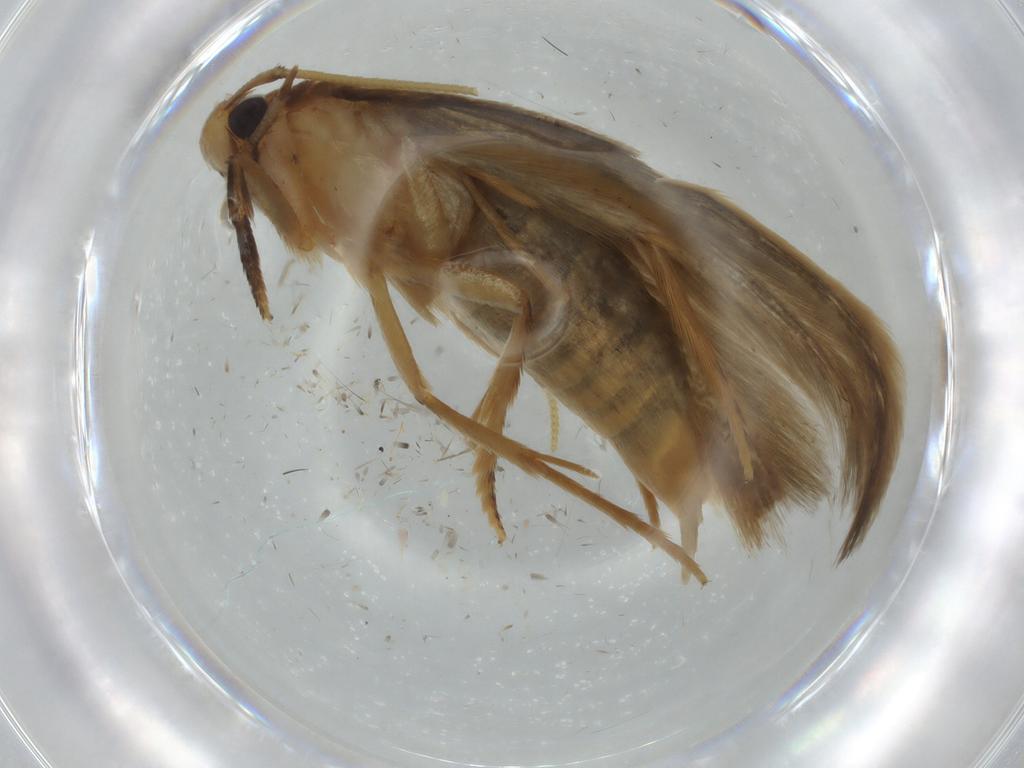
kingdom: Animalia
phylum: Arthropoda
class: Insecta
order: Lepidoptera
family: Tineidae
